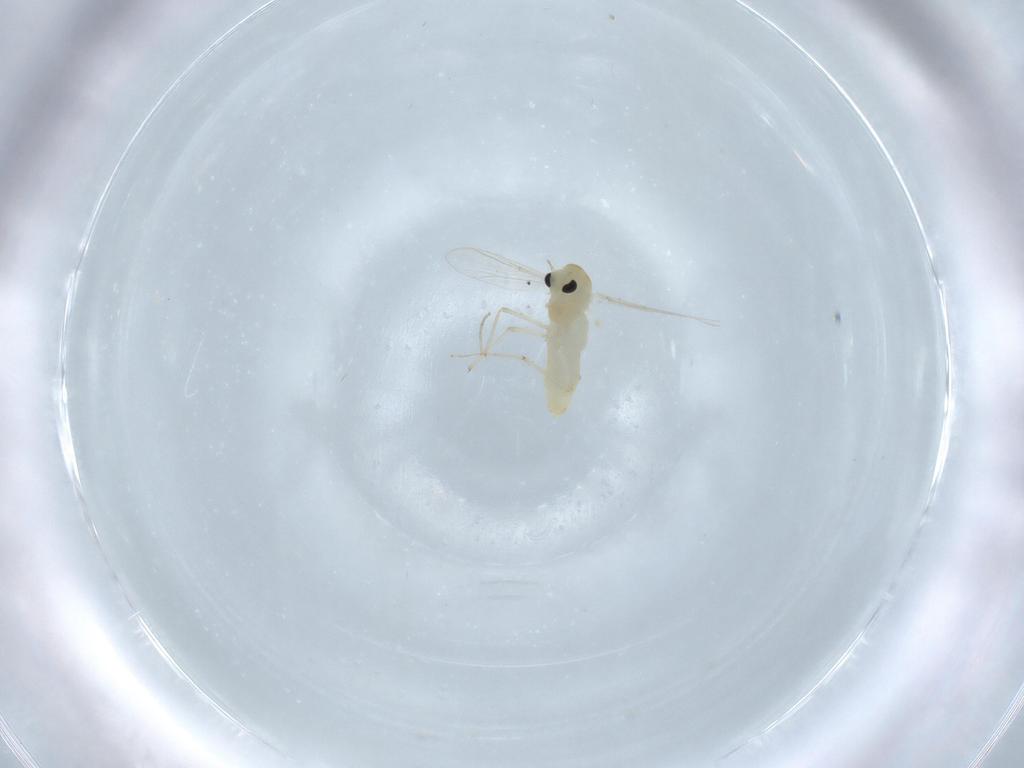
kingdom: Animalia
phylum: Arthropoda
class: Insecta
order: Diptera
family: Chironomidae
